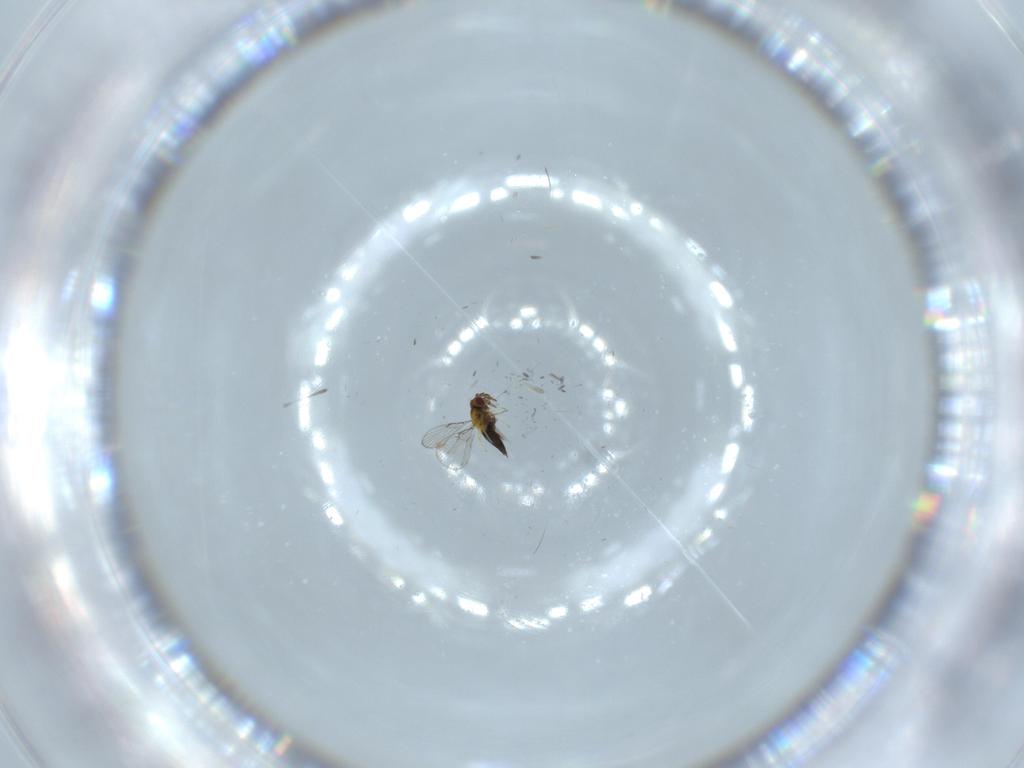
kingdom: Animalia
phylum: Arthropoda
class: Insecta
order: Hymenoptera
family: Trichogrammatidae
